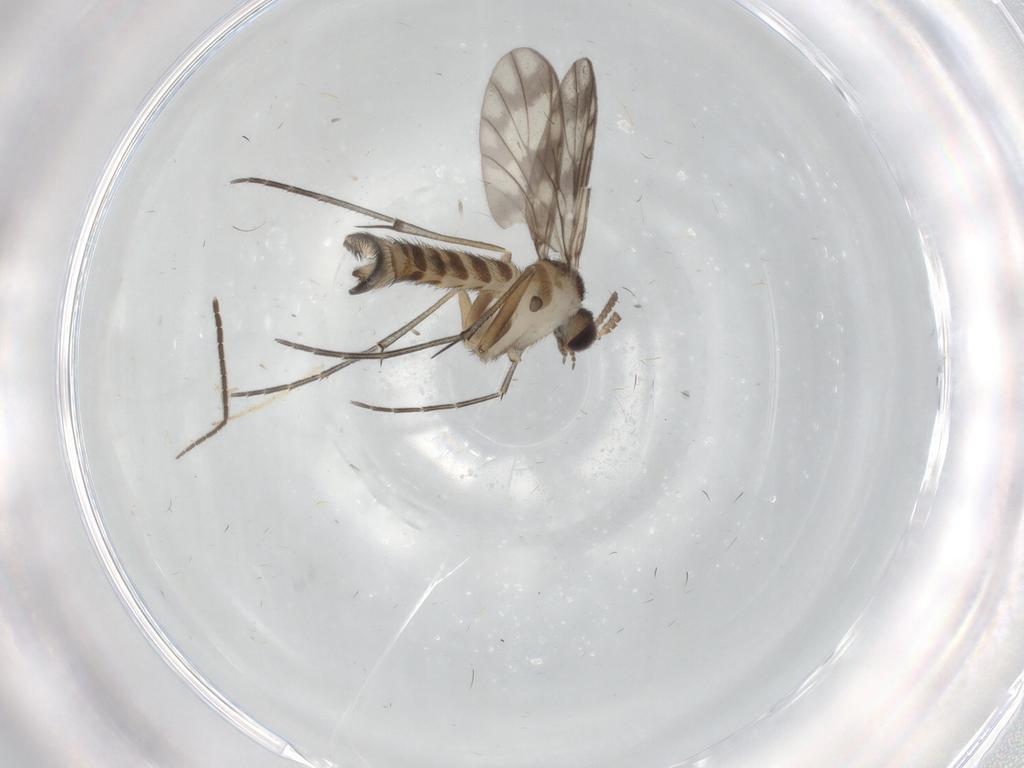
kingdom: Animalia
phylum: Arthropoda
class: Insecta
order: Diptera
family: Keroplatidae
